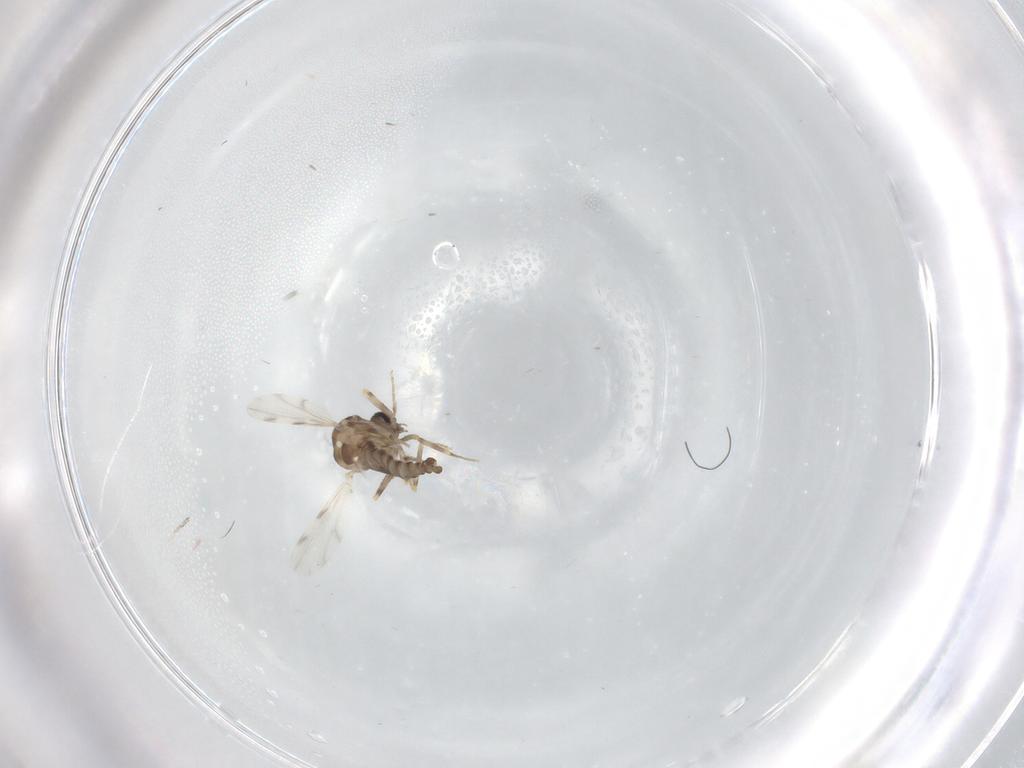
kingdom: Animalia
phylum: Arthropoda
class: Insecta
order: Diptera
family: Ceratopogonidae
